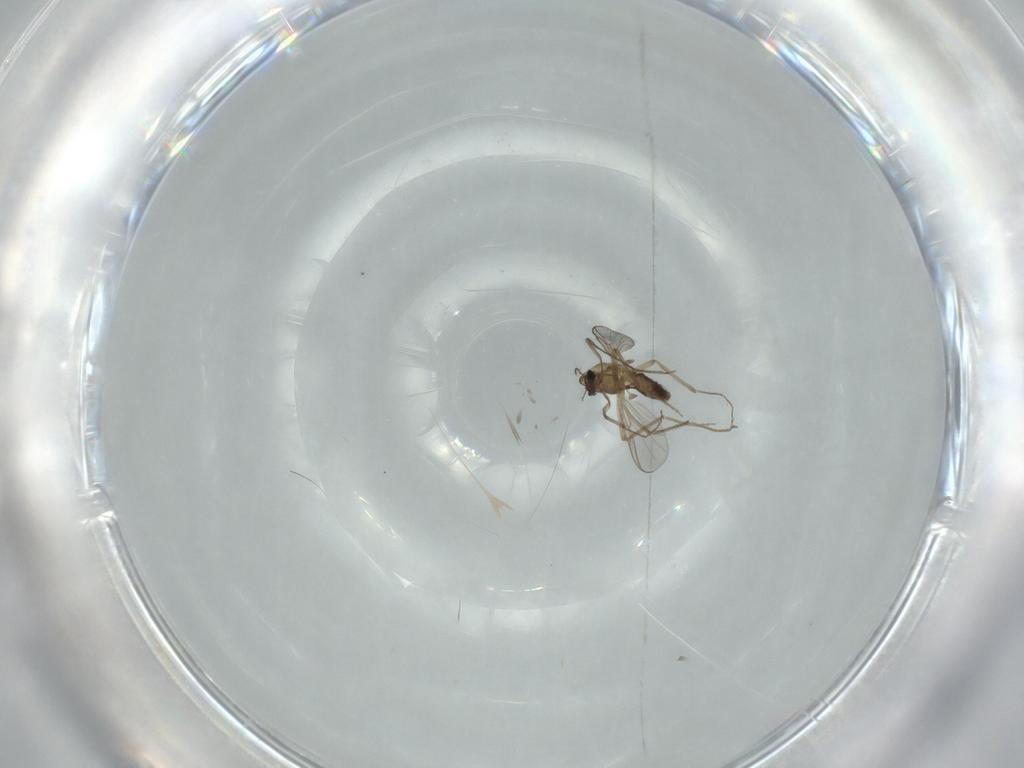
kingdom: Animalia
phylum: Arthropoda
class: Insecta
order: Diptera
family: Chironomidae
